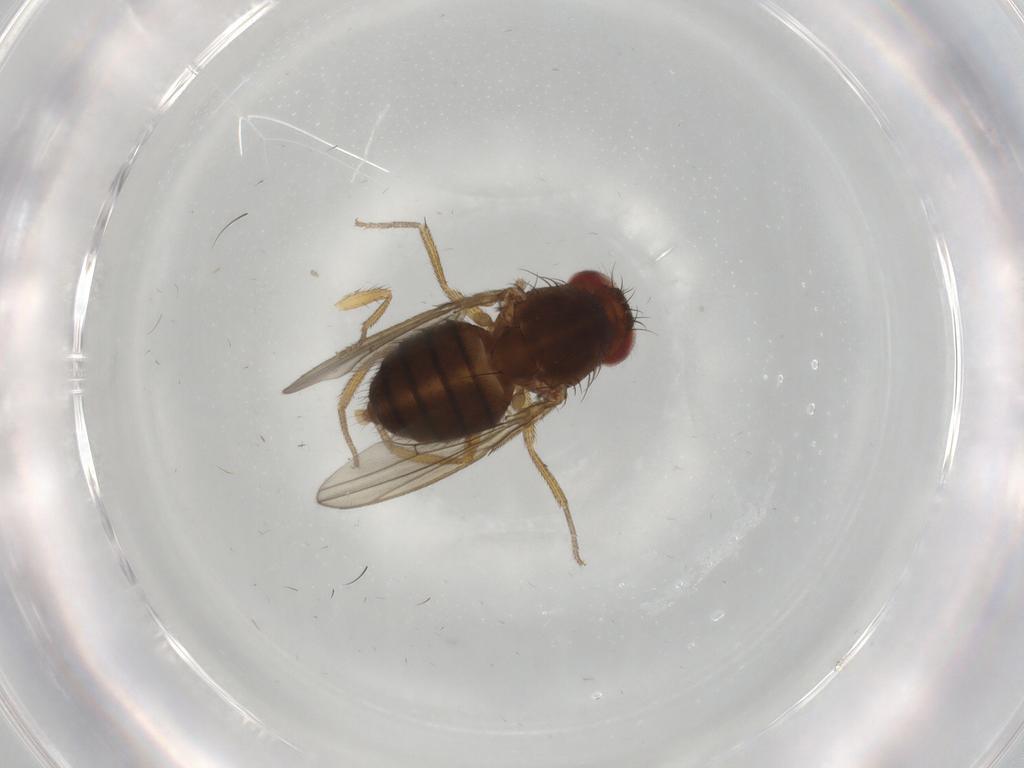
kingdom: Animalia
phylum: Arthropoda
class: Insecta
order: Diptera
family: Drosophilidae
